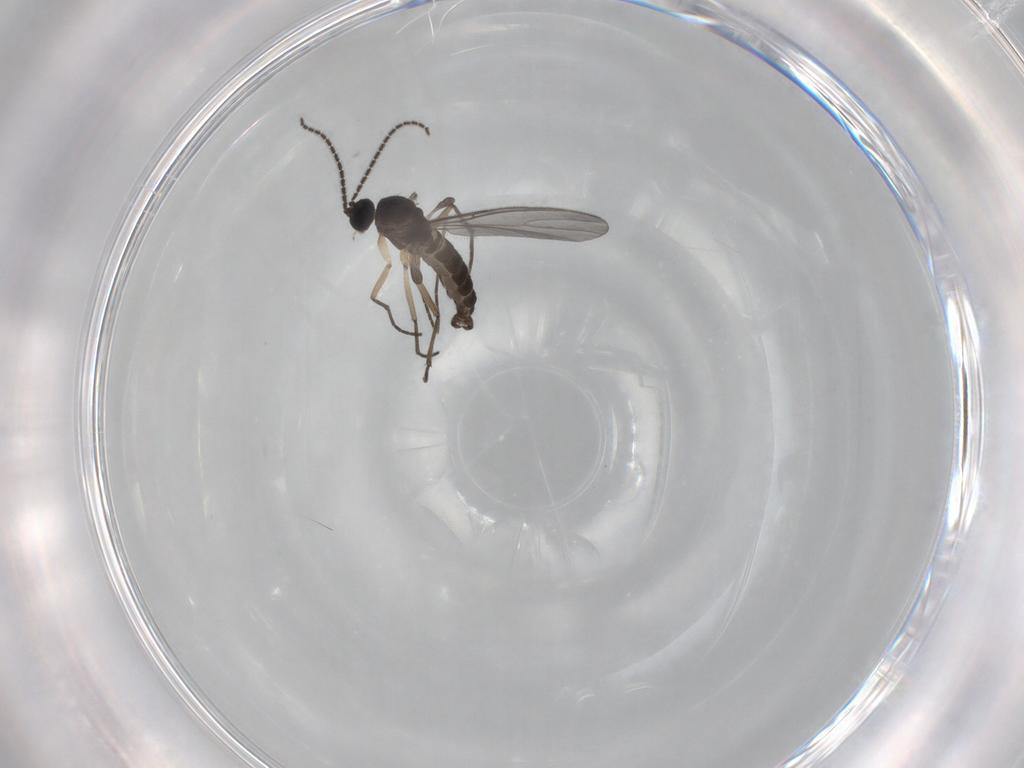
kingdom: Animalia
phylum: Arthropoda
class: Insecta
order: Diptera
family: Sciaridae
